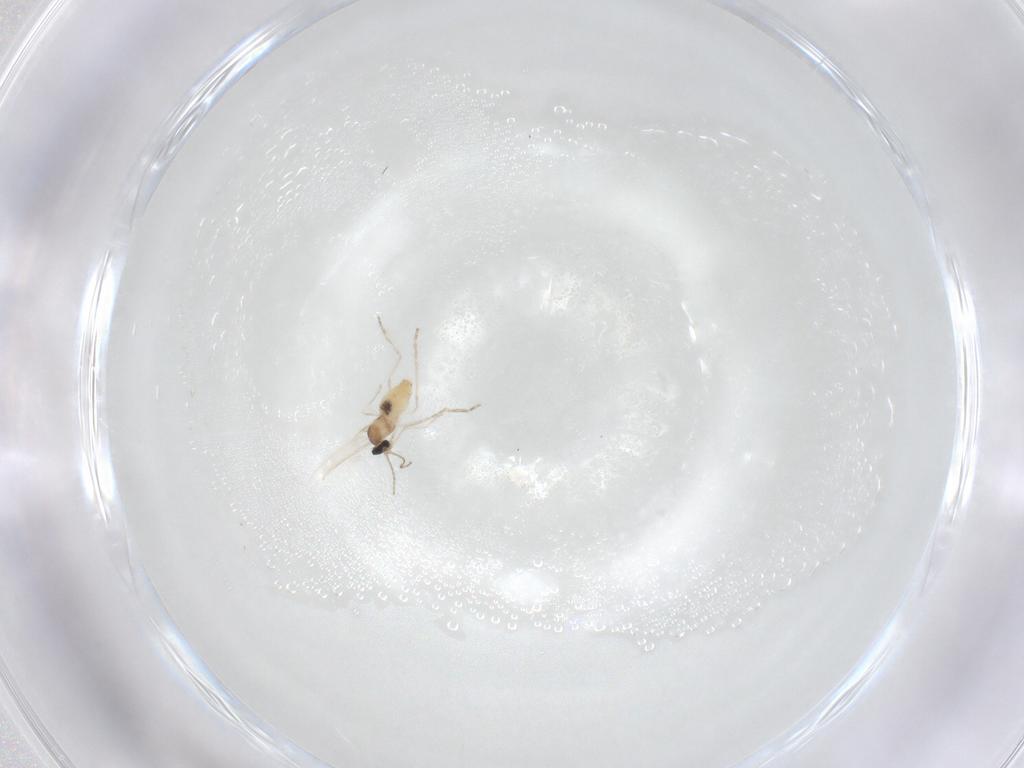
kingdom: Animalia
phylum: Arthropoda
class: Insecta
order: Diptera
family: Cecidomyiidae
